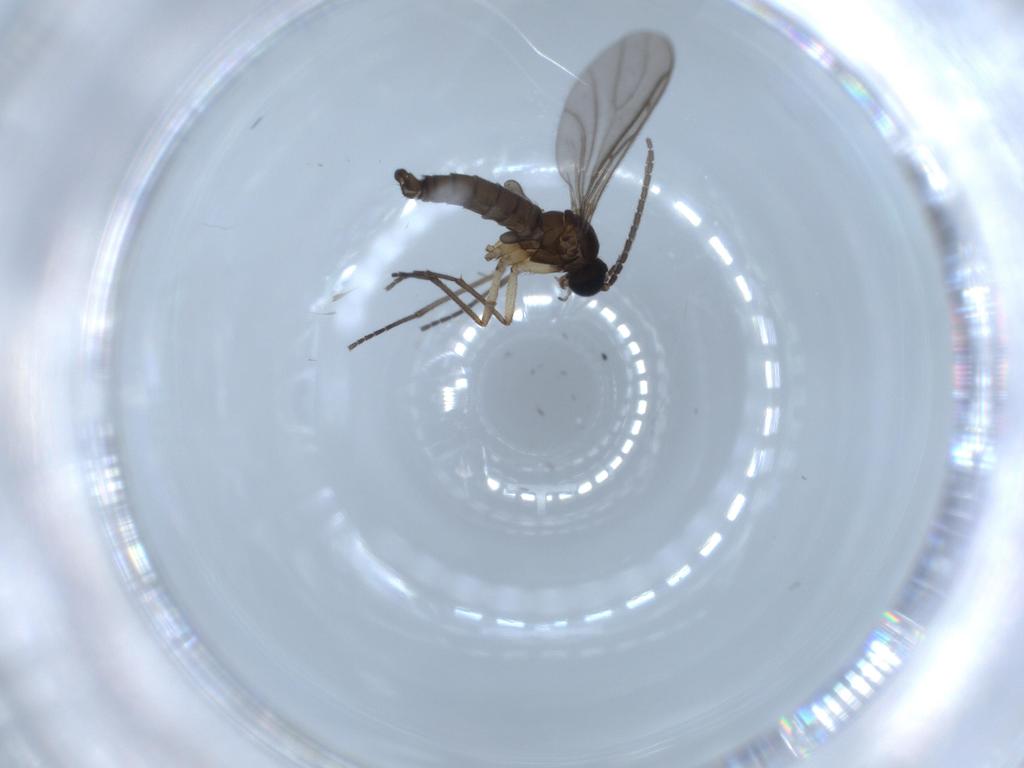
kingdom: Animalia
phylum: Arthropoda
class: Insecta
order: Diptera
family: Sciaridae
